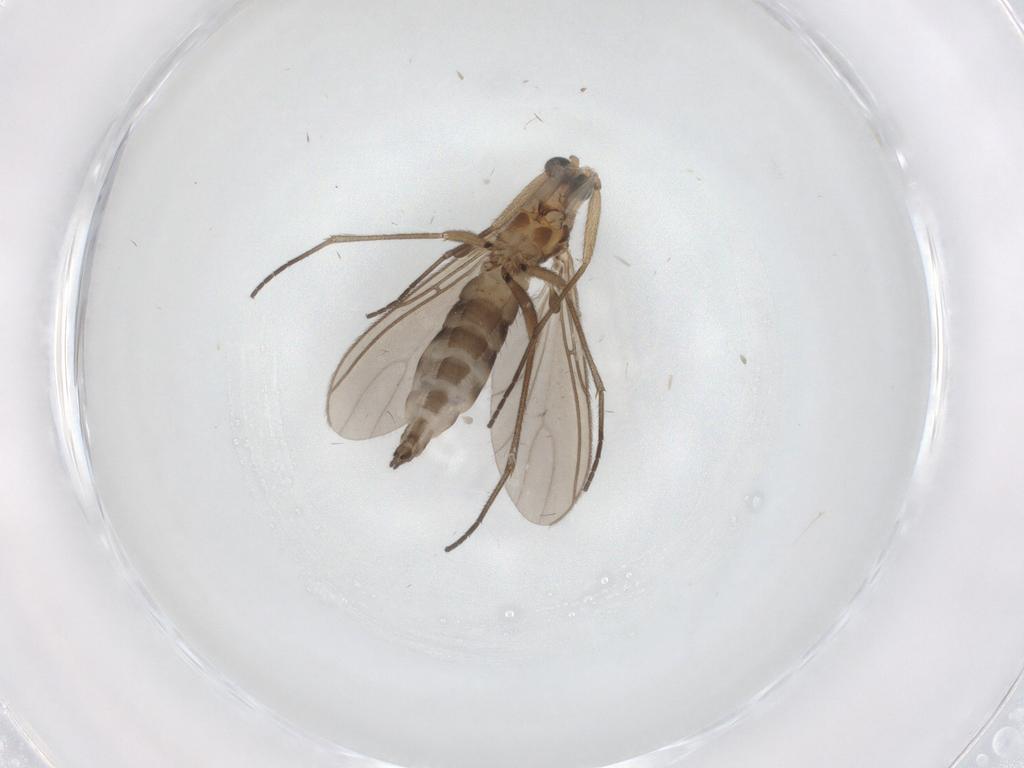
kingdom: Animalia
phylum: Arthropoda
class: Insecta
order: Diptera
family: Sciaridae
